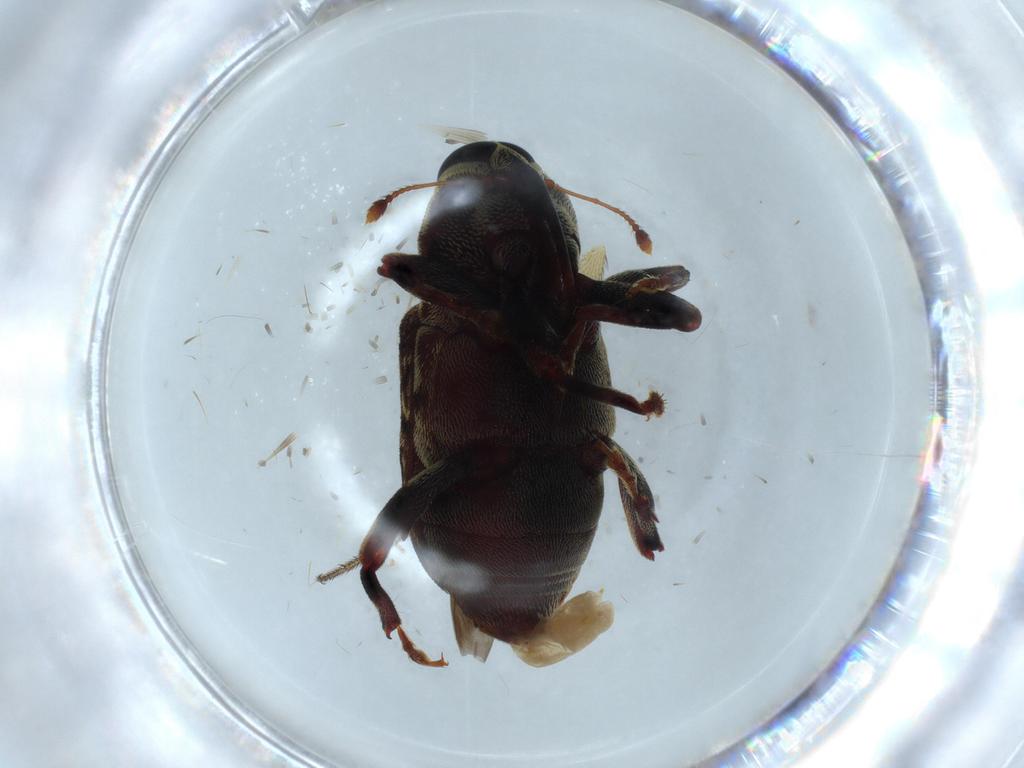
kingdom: Animalia
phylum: Arthropoda
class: Insecta
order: Coleoptera
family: Curculionidae
